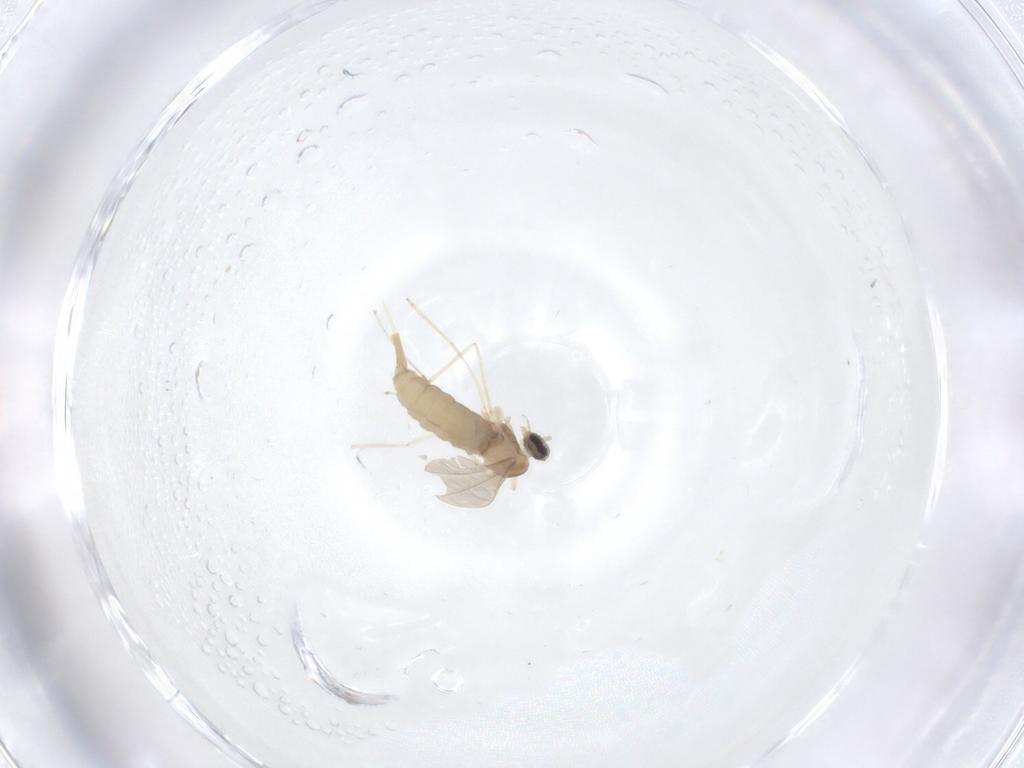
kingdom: Animalia
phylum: Arthropoda
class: Insecta
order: Diptera
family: Cecidomyiidae
